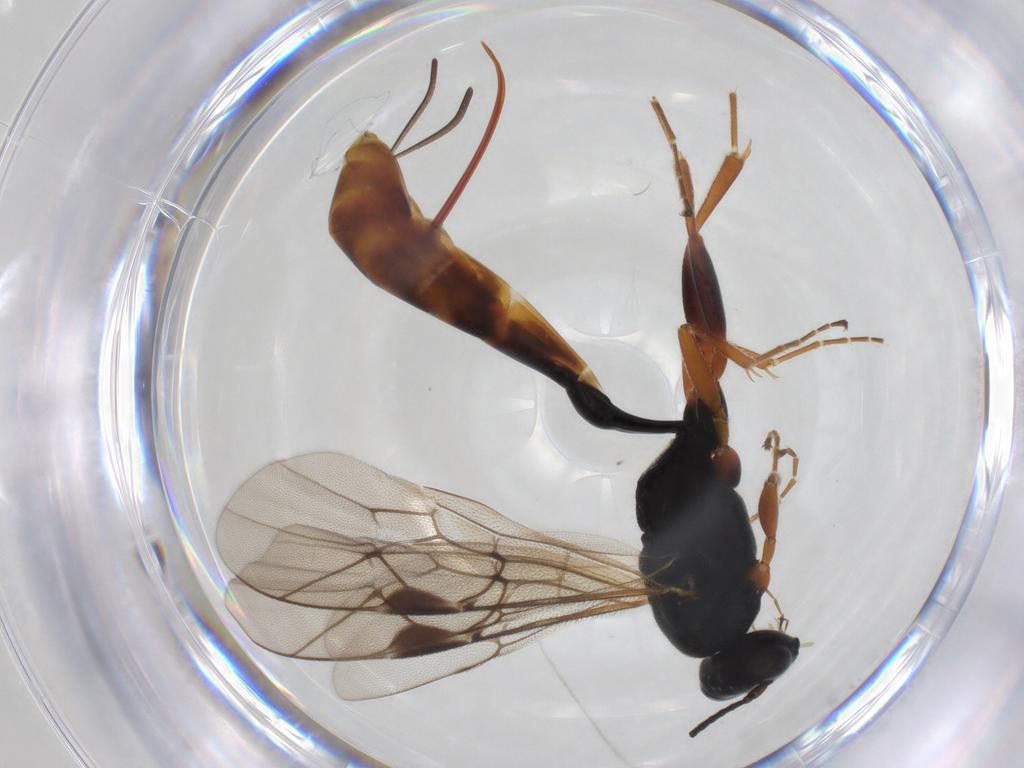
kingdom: Animalia
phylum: Arthropoda
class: Insecta
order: Hymenoptera
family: Ichneumonidae
